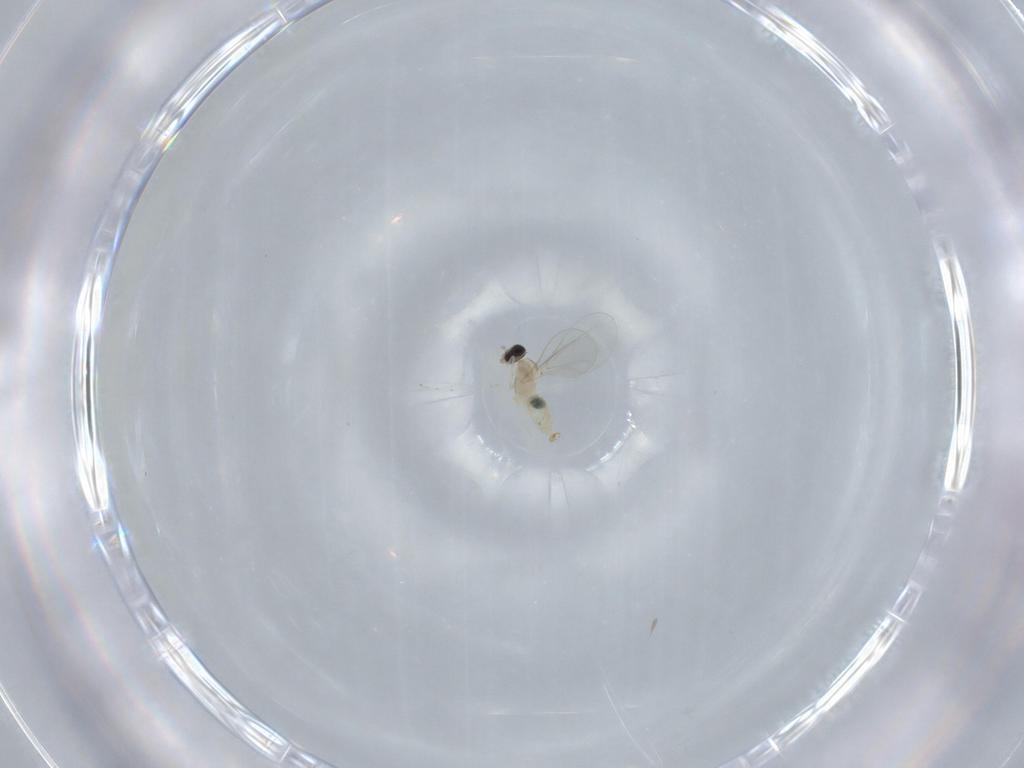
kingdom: Animalia
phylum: Arthropoda
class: Insecta
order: Diptera
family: Cecidomyiidae
